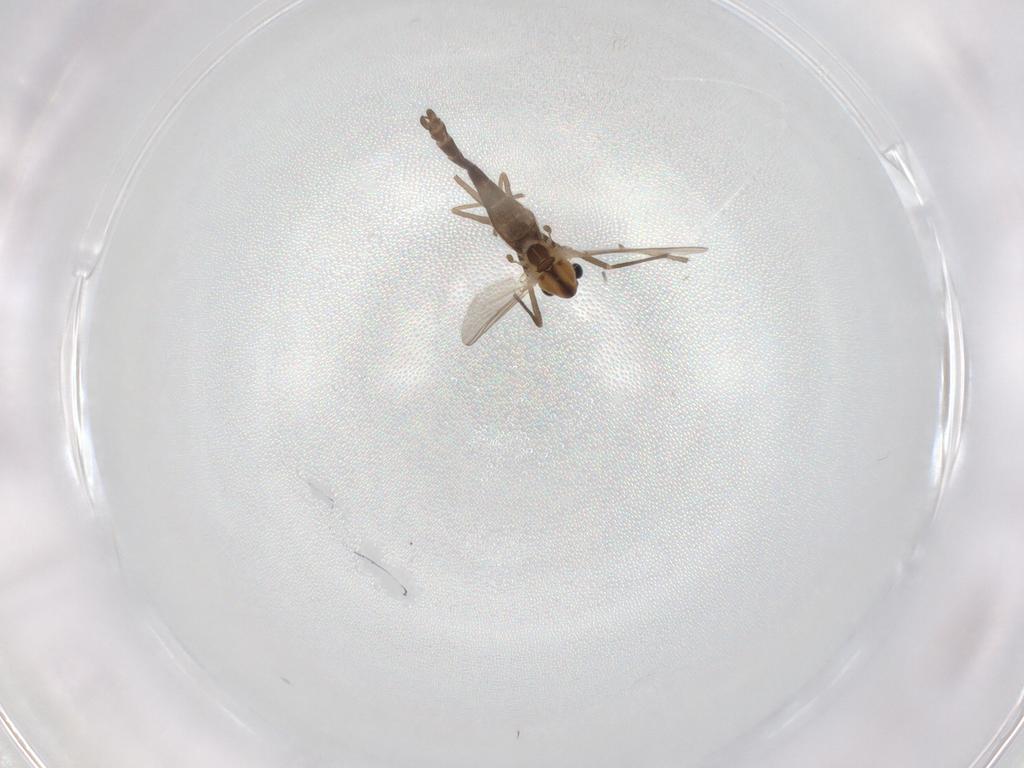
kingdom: Animalia
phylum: Arthropoda
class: Insecta
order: Diptera
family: Chironomidae
